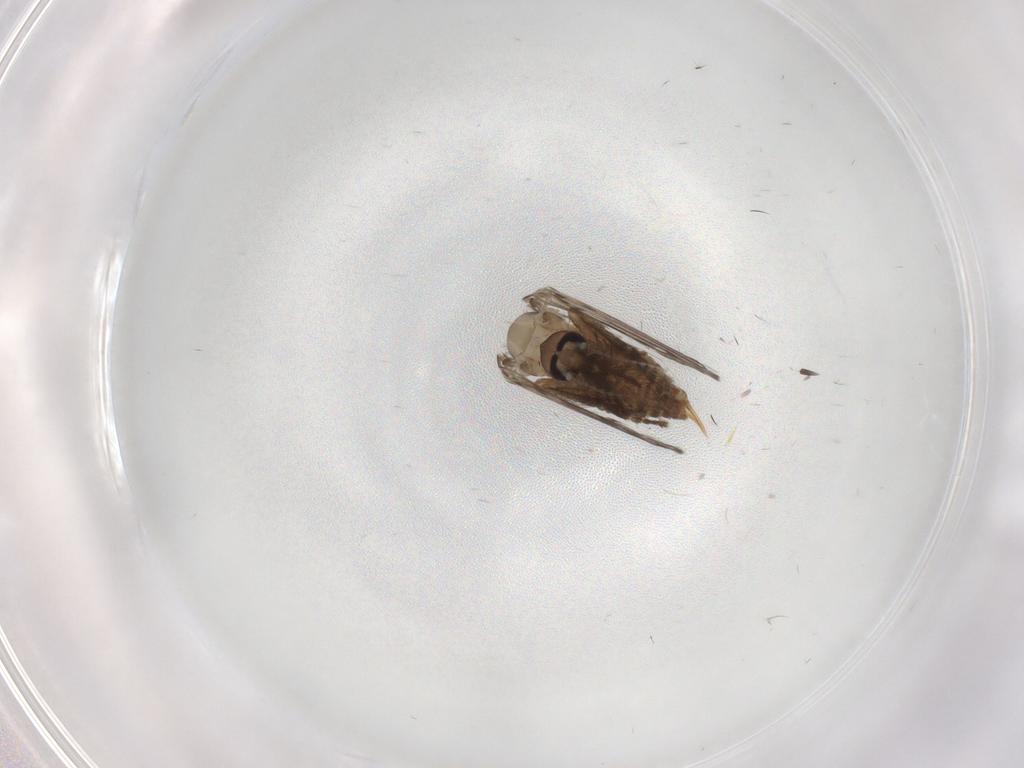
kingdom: Animalia
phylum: Arthropoda
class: Insecta
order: Diptera
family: Psychodidae
